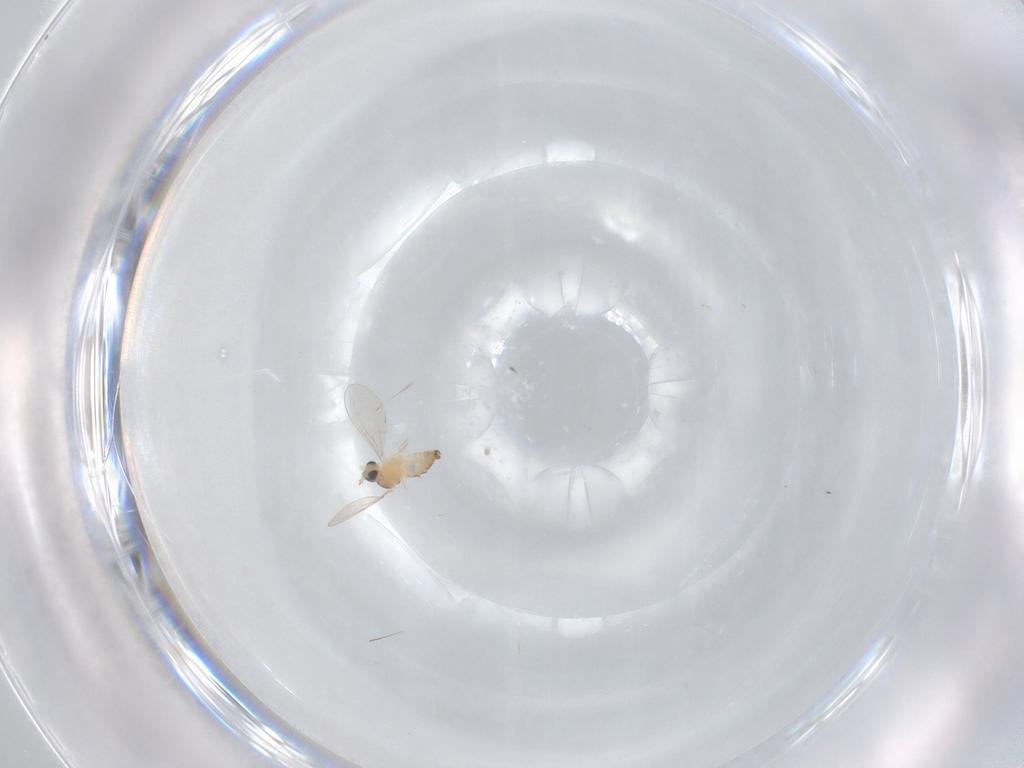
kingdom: Animalia
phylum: Arthropoda
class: Insecta
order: Diptera
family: Cecidomyiidae
